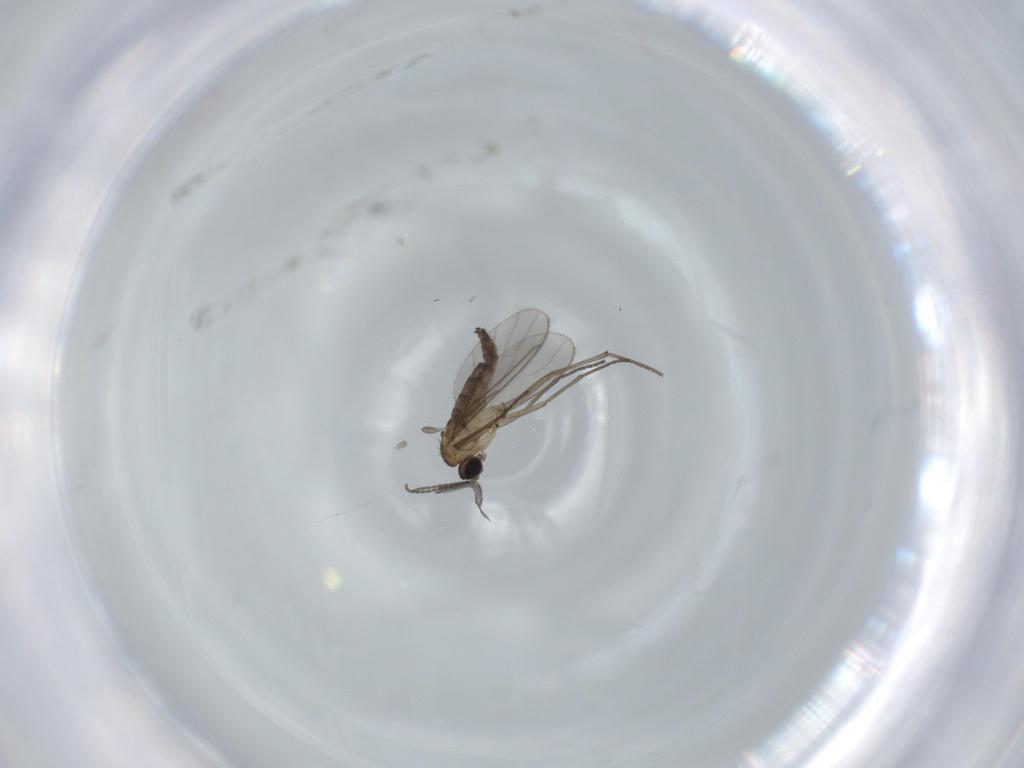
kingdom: Animalia
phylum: Arthropoda
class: Insecta
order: Diptera
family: Sciaridae
